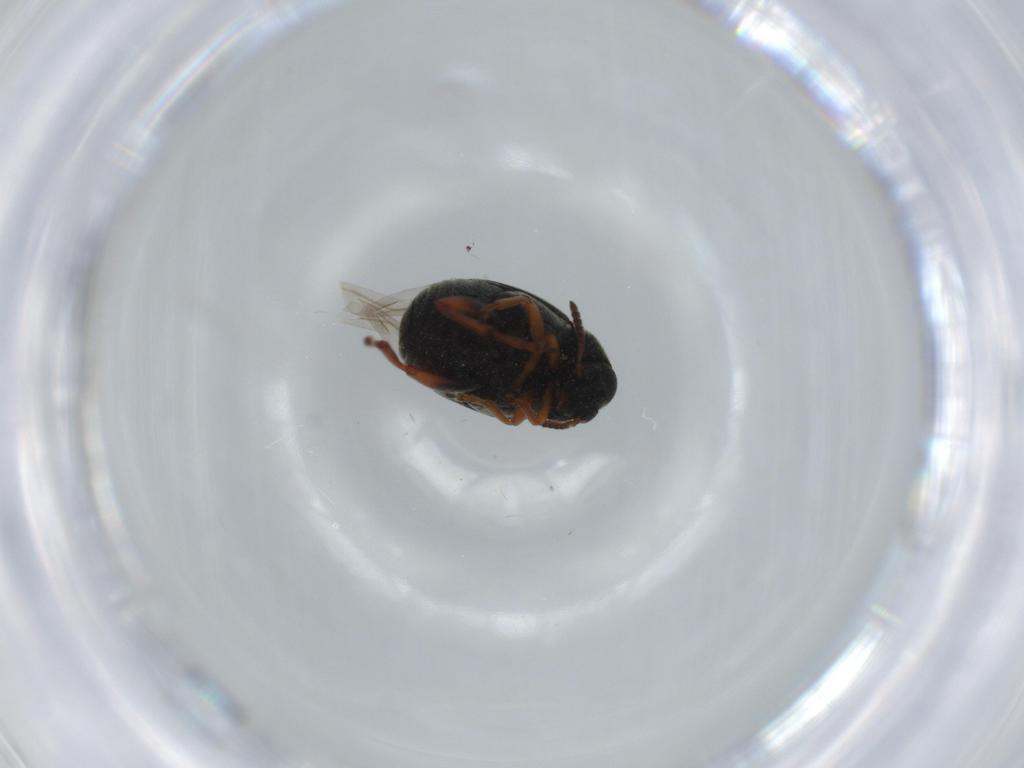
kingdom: Animalia
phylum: Arthropoda
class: Insecta
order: Coleoptera
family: Chrysomelidae
